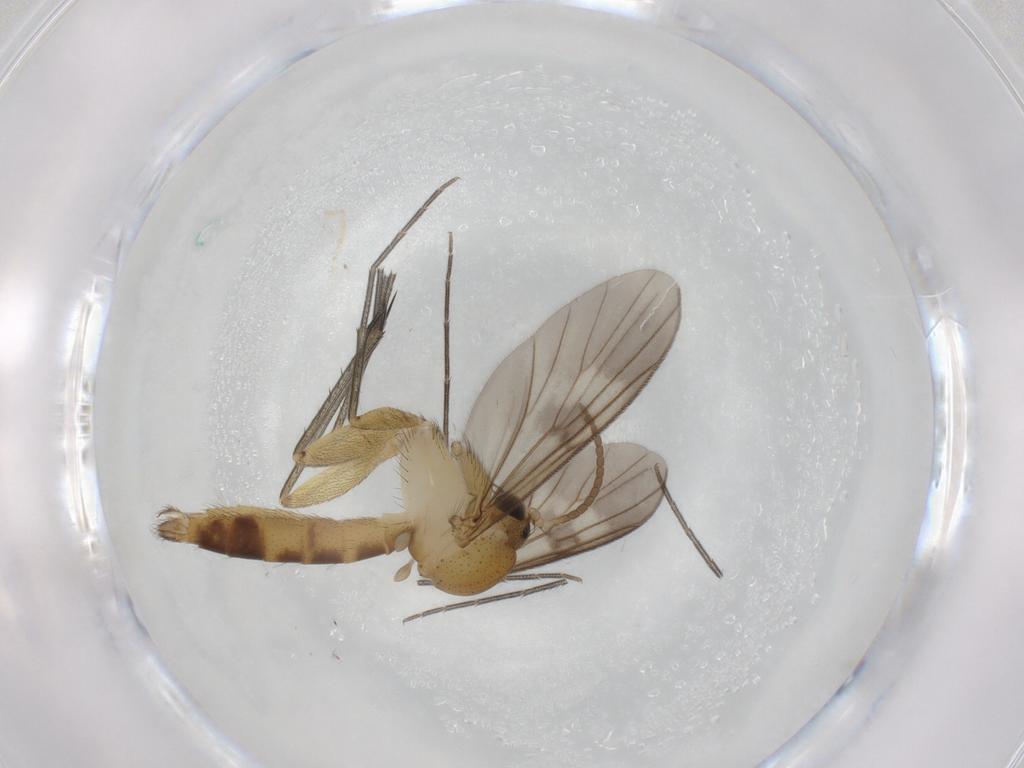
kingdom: Animalia
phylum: Arthropoda
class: Insecta
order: Diptera
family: Mycetophilidae
